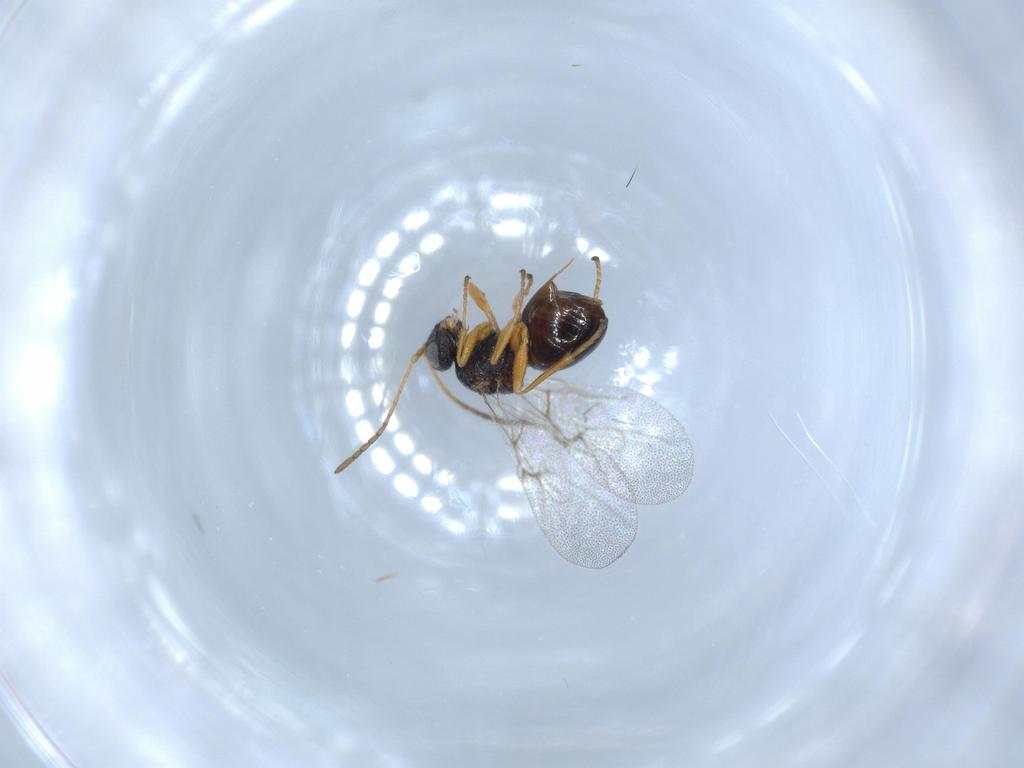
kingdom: Animalia
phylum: Arthropoda
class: Insecta
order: Hymenoptera
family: Cynipidae
